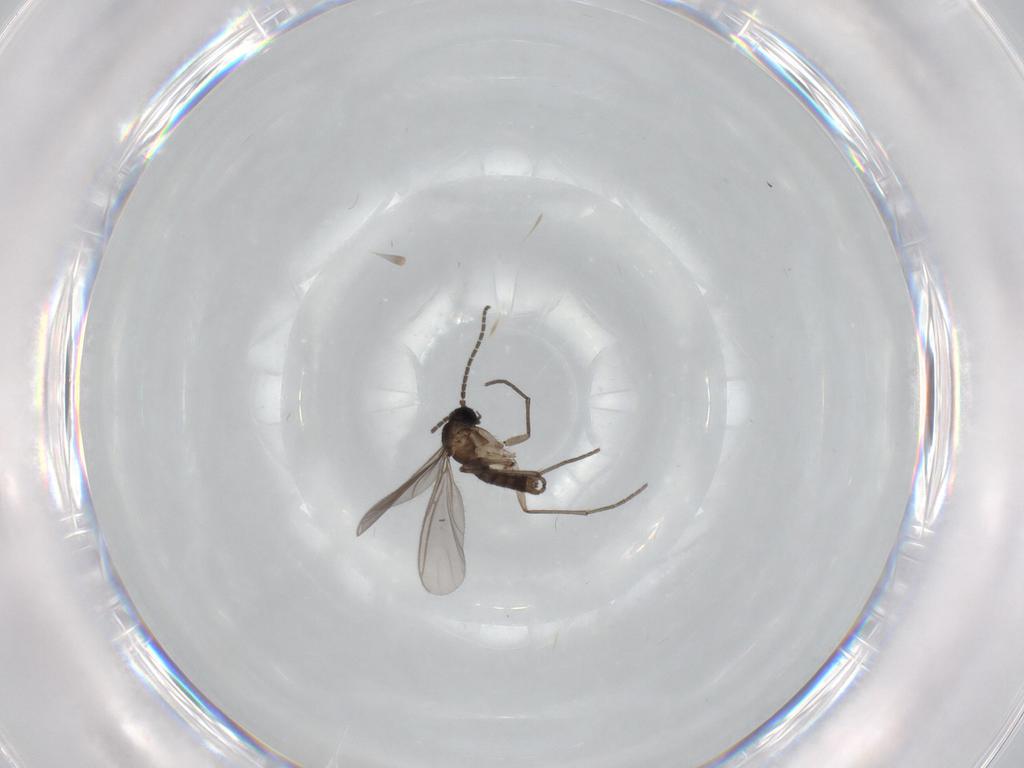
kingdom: Animalia
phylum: Arthropoda
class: Insecta
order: Diptera
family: Sciaridae
